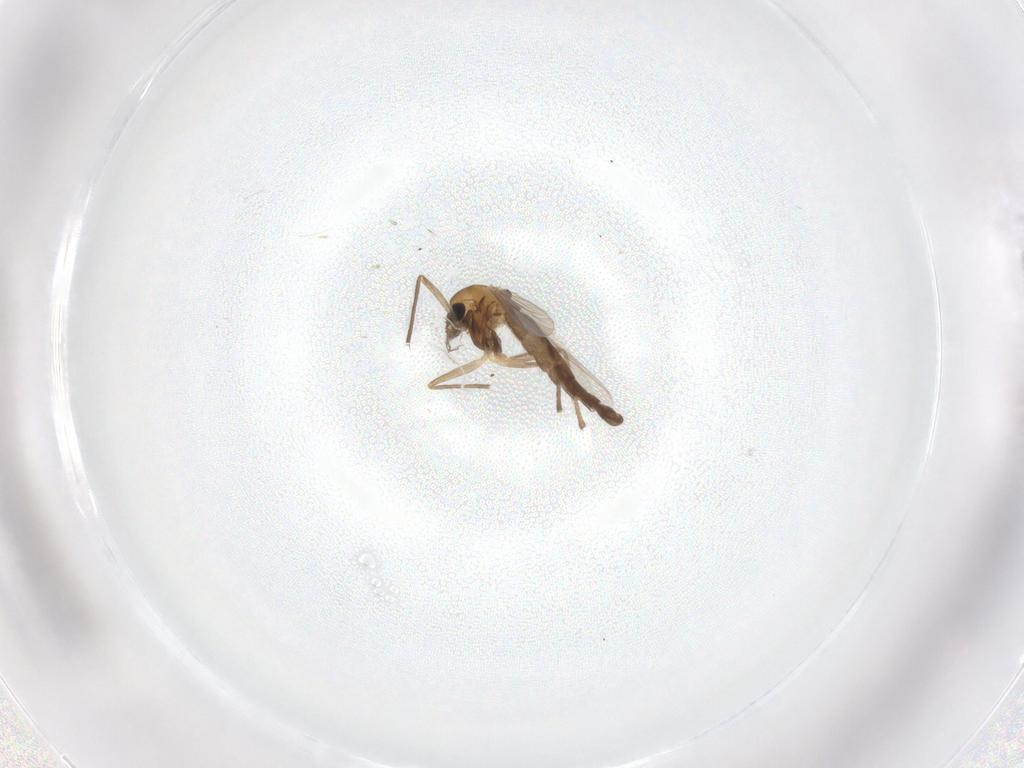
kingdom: Animalia
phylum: Arthropoda
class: Insecta
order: Diptera
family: Chironomidae
